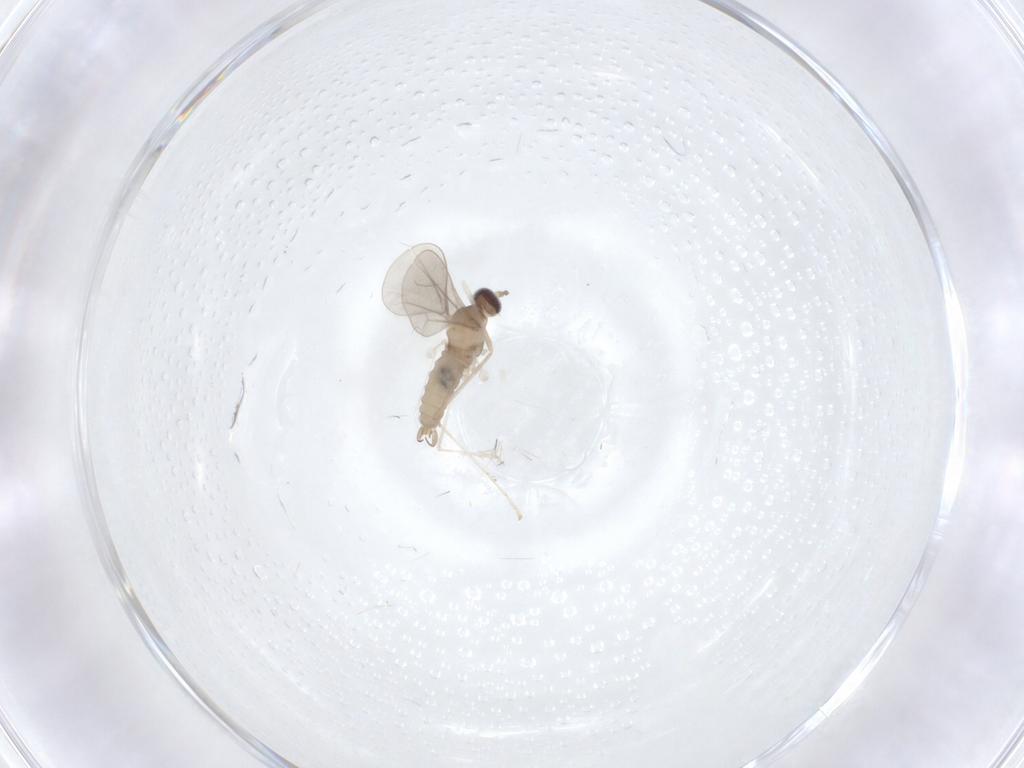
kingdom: Animalia
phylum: Arthropoda
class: Insecta
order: Diptera
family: Cecidomyiidae
